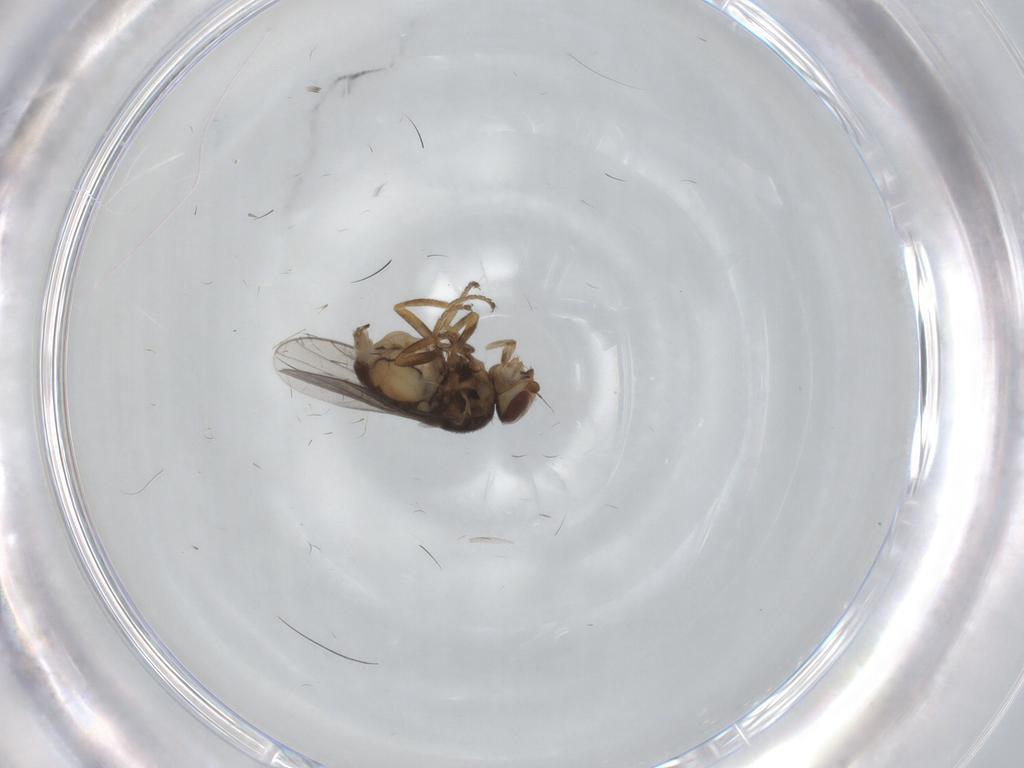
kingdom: Animalia
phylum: Arthropoda
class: Insecta
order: Diptera
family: Chloropidae
